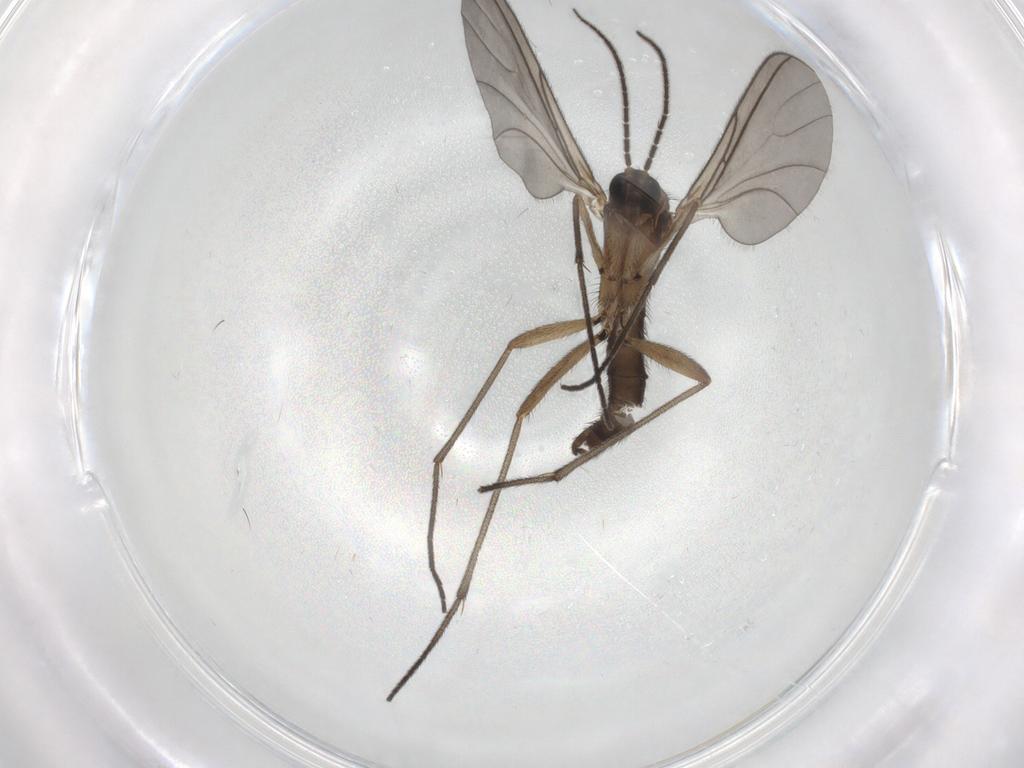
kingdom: Animalia
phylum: Arthropoda
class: Insecta
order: Diptera
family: Sciaridae
